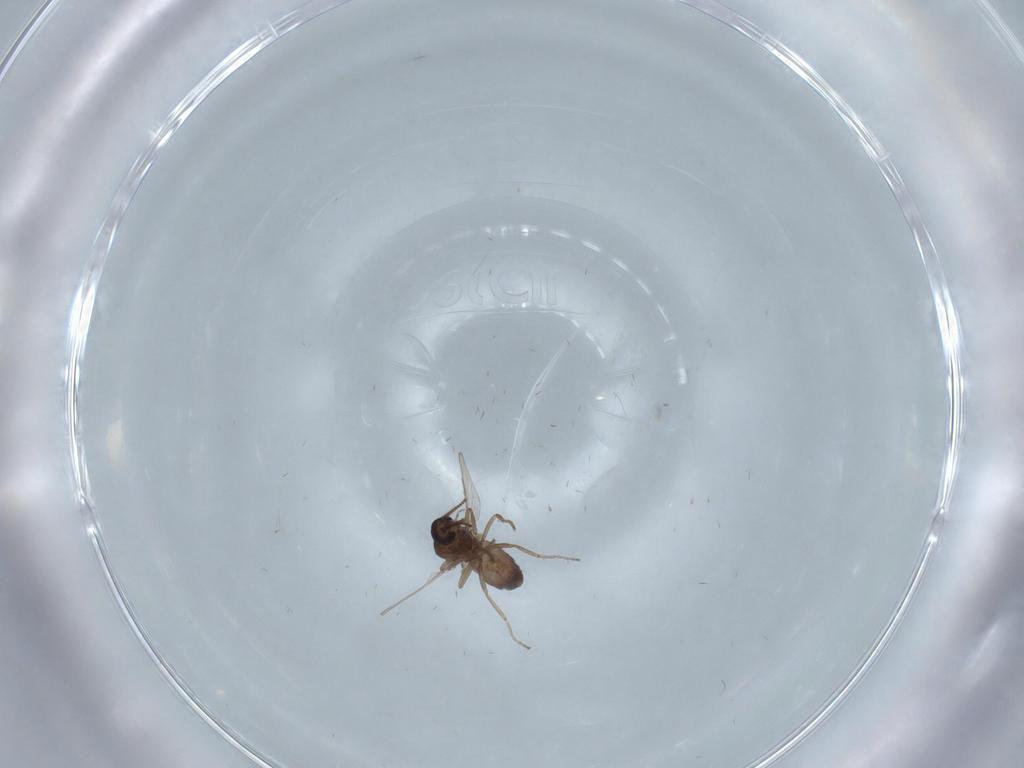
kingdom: Animalia
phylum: Arthropoda
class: Insecta
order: Diptera
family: Ceratopogonidae
